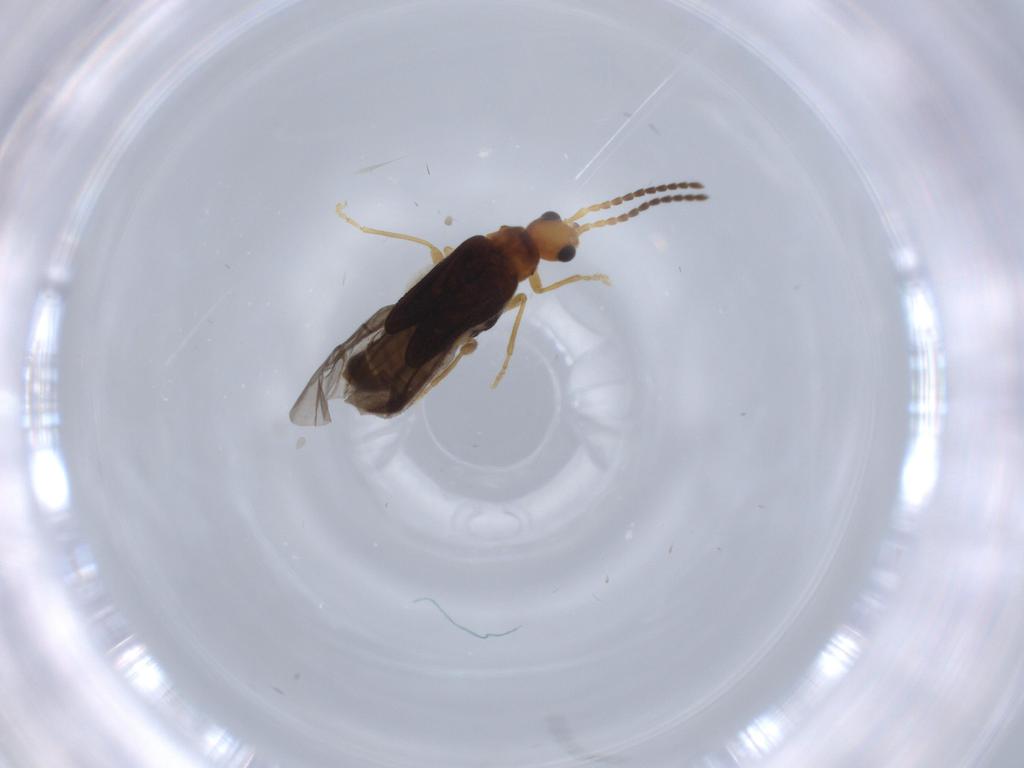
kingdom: Animalia
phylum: Arthropoda
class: Insecta
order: Coleoptera
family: Cantharidae
